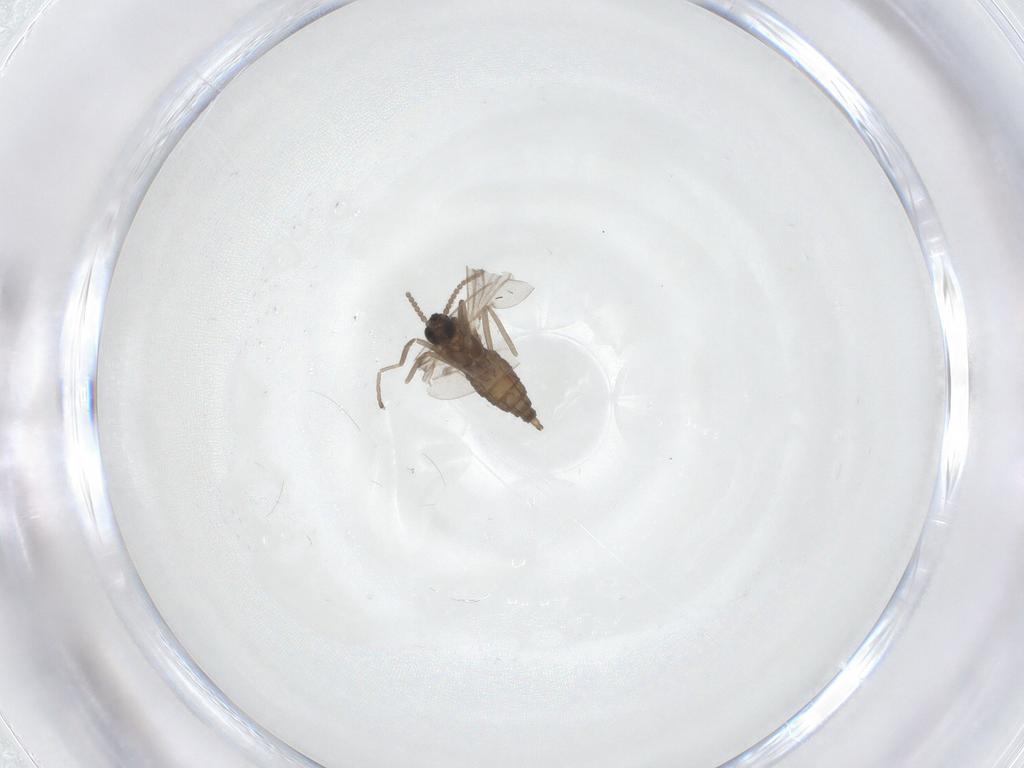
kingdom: Animalia
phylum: Arthropoda
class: Insecta
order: Diptera
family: Cecidomyiidae
